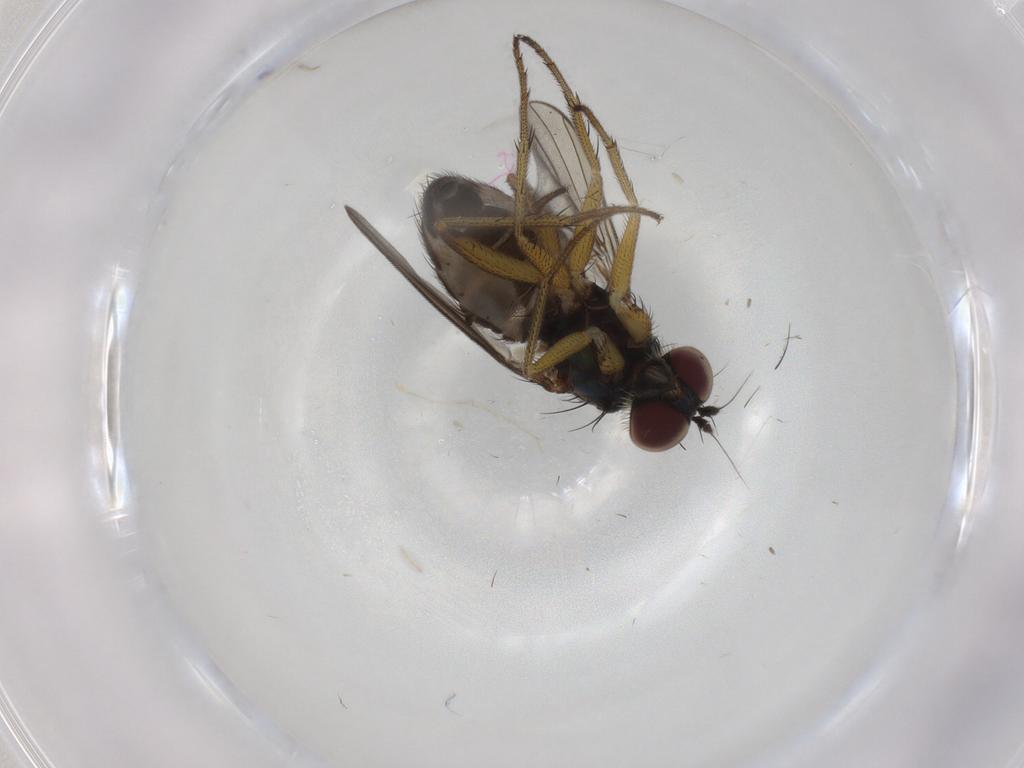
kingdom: Animalia
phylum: Arthropoda
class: Insecta
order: Diptera
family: Dolichopodidae
